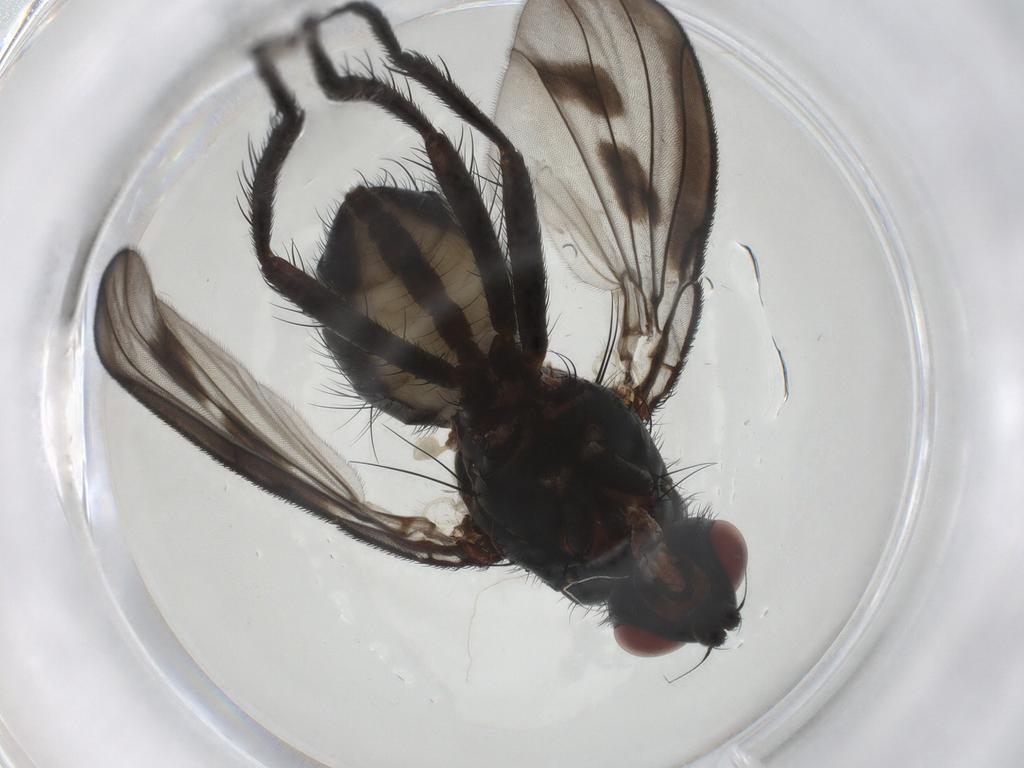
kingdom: Animalia
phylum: Arthropoda
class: Insecta
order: Diptera
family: Anthomyiidae
